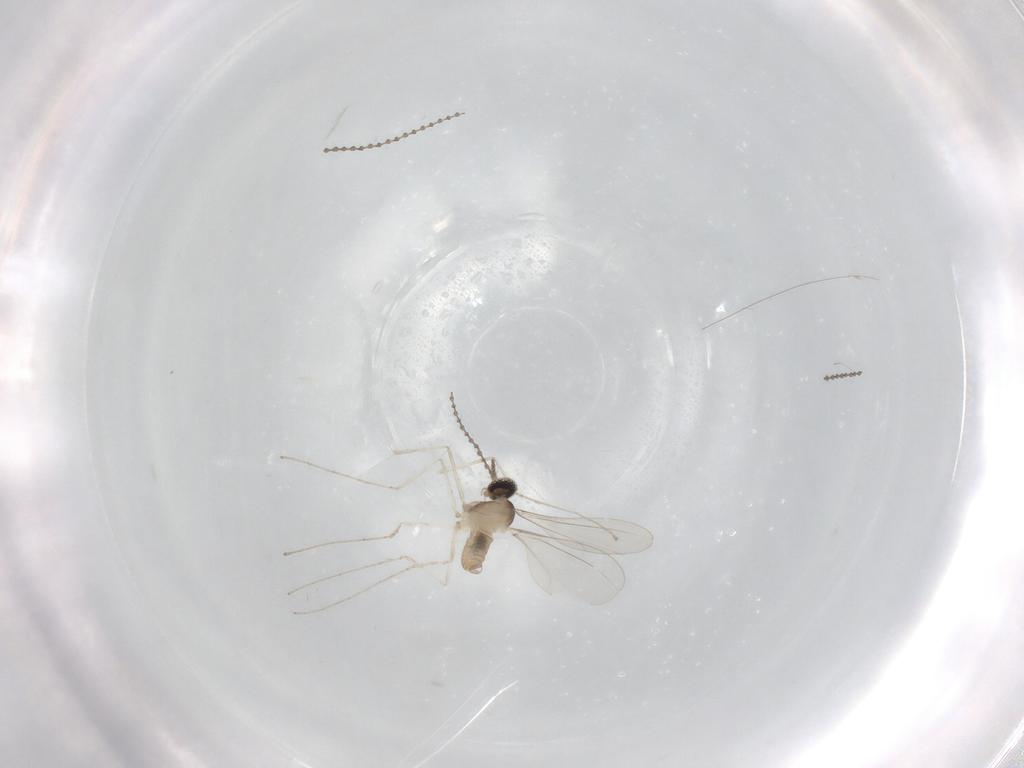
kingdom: Animalia
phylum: Arthropoda
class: Insecta
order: Diptera
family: Cecidomyiidae
